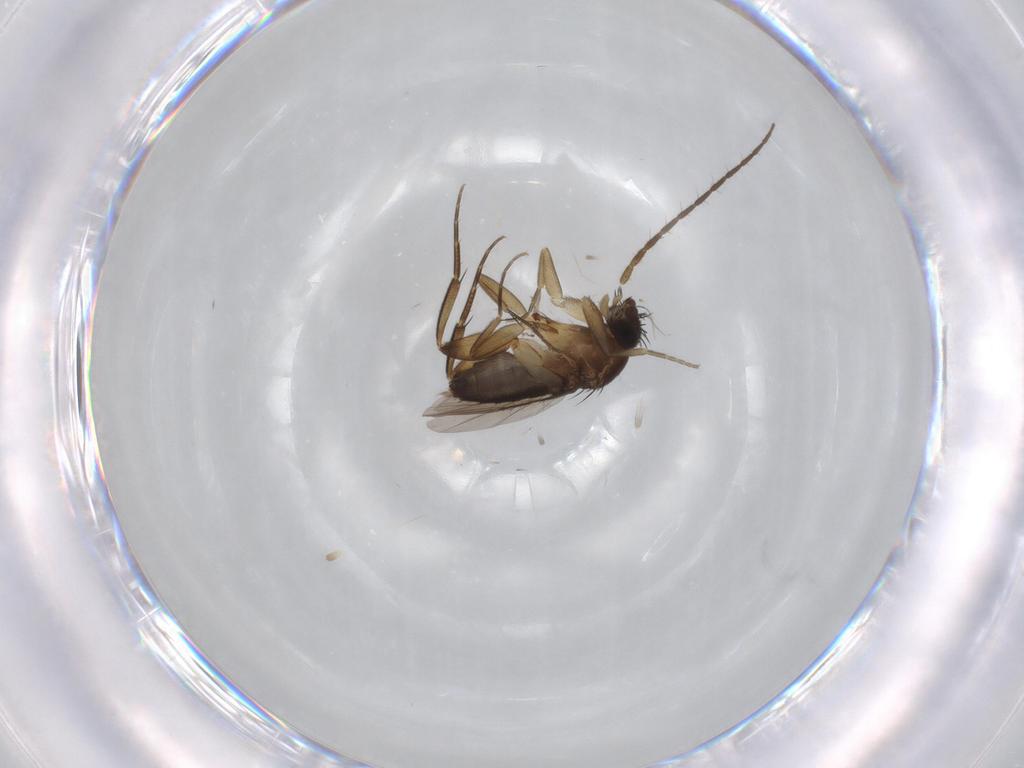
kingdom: Animalia
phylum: Arthropoda
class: Insecta
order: Diptera
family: Phoridae
